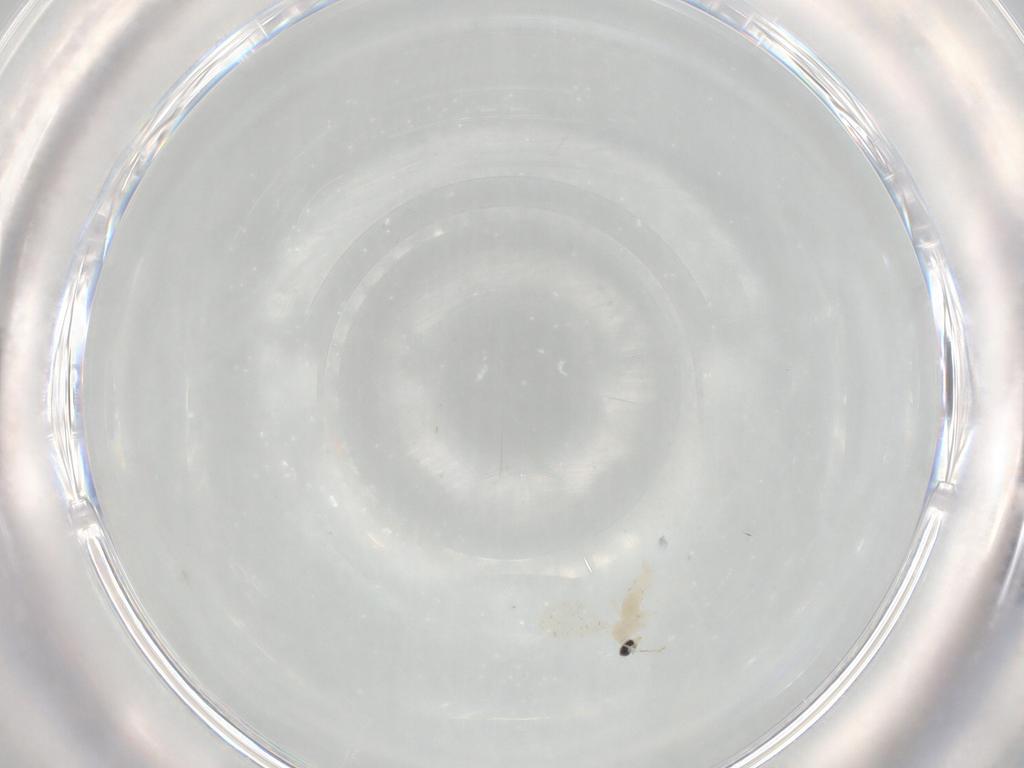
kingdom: Animalia
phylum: Arthropoda
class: Insecta
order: Diptera
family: Cecidomyiidae
